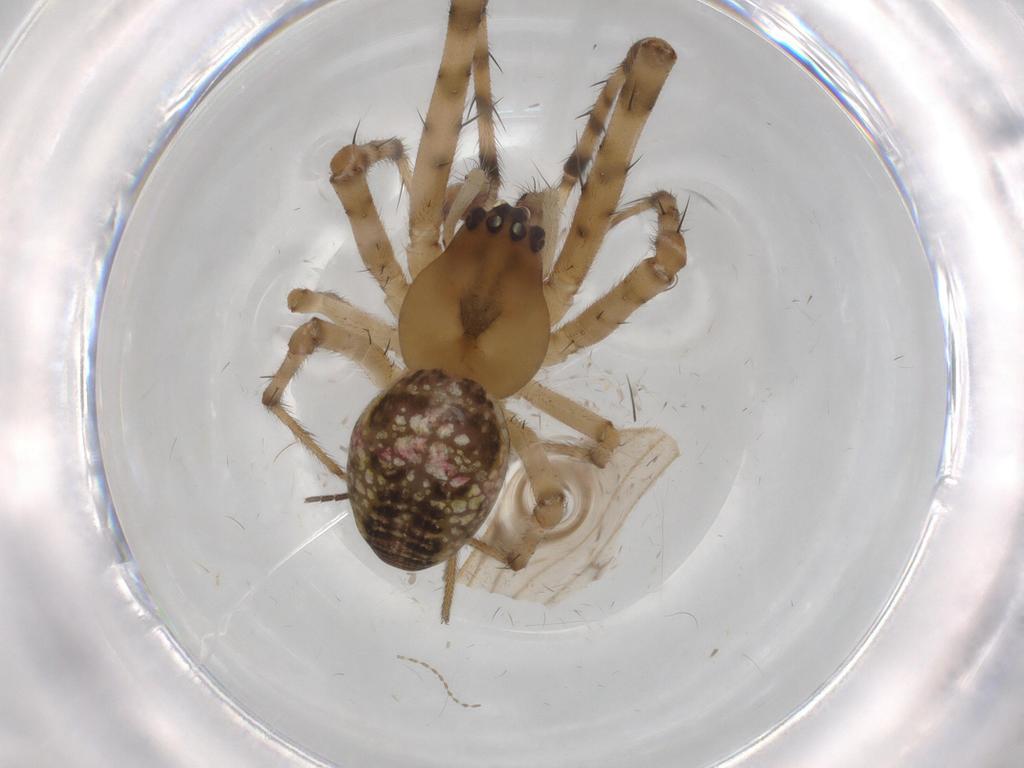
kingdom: Animalia
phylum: Arthropoda
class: Arachnida
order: Araneae
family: Tetragnathidae
